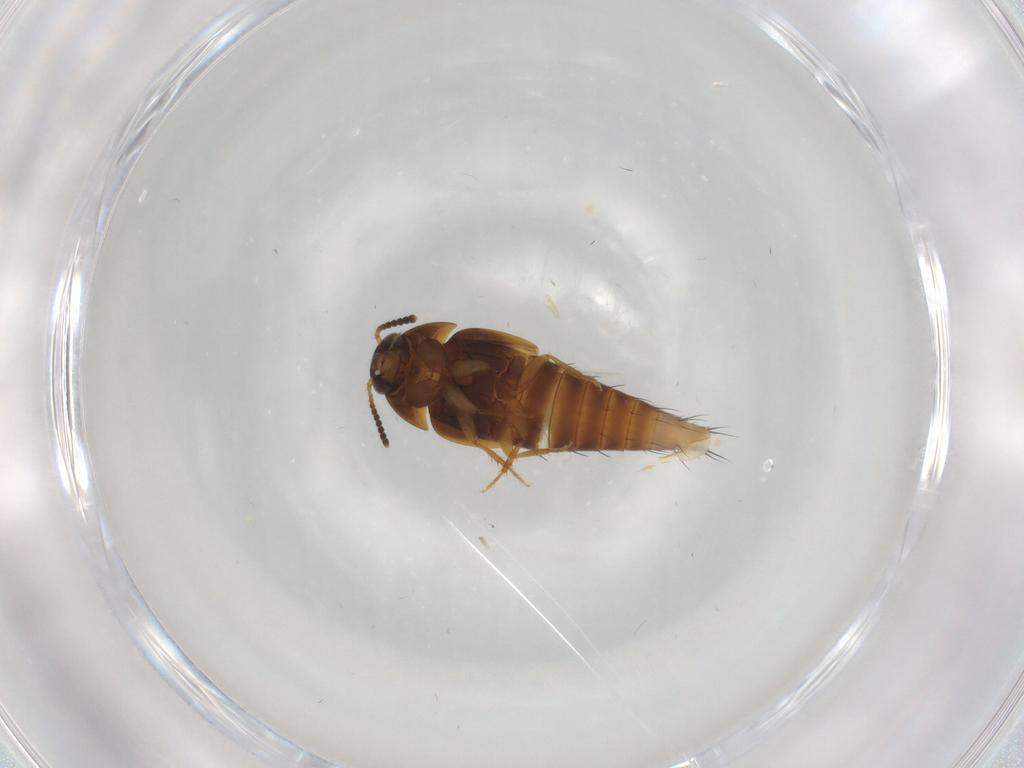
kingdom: Animalia
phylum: Arthropoda
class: Insecta
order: Coleoptera
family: Staphylinidae
